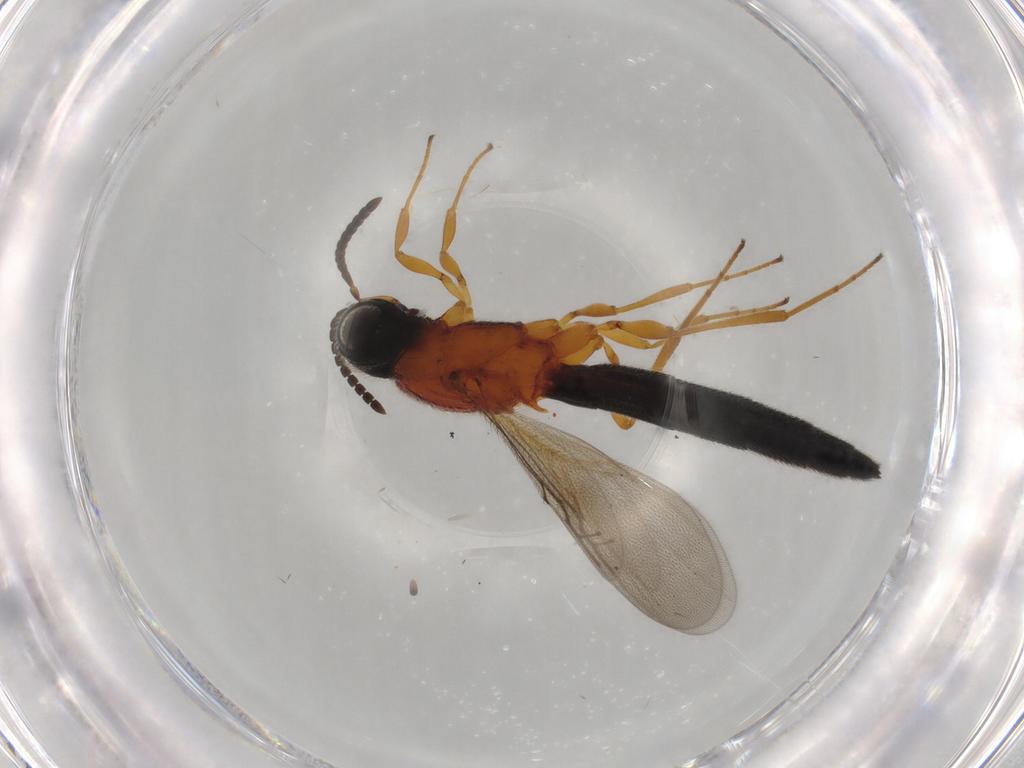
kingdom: Animalia
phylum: Arthropoda
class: Insecta
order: Hymenoptera
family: Scelionidae
